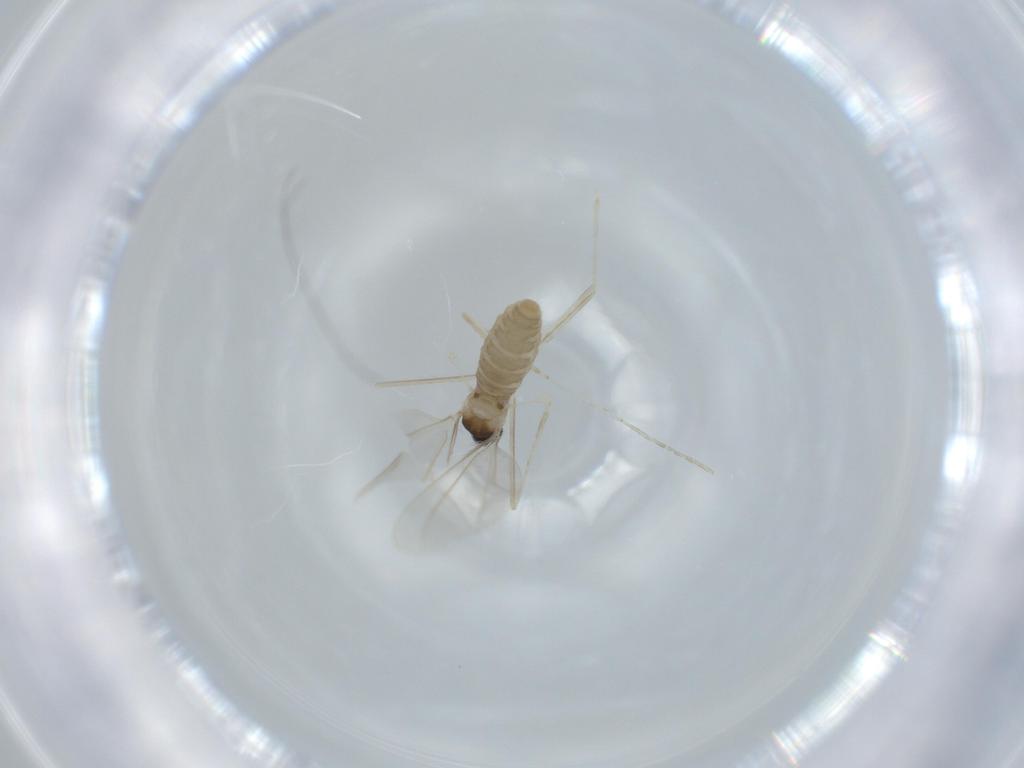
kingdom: Animalia
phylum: Arthropoda
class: Insecta
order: Diptera
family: Cecidomyiidae
